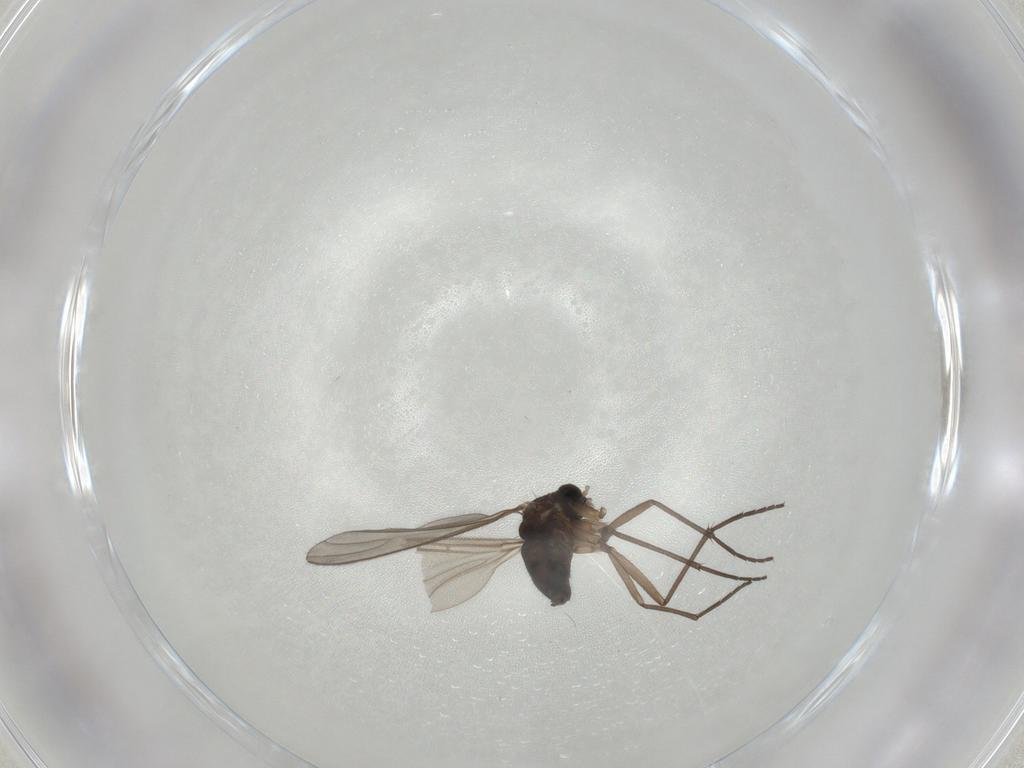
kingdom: Animalia
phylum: Arthropoda
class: Insecta
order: Diptera
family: Sciaridae
